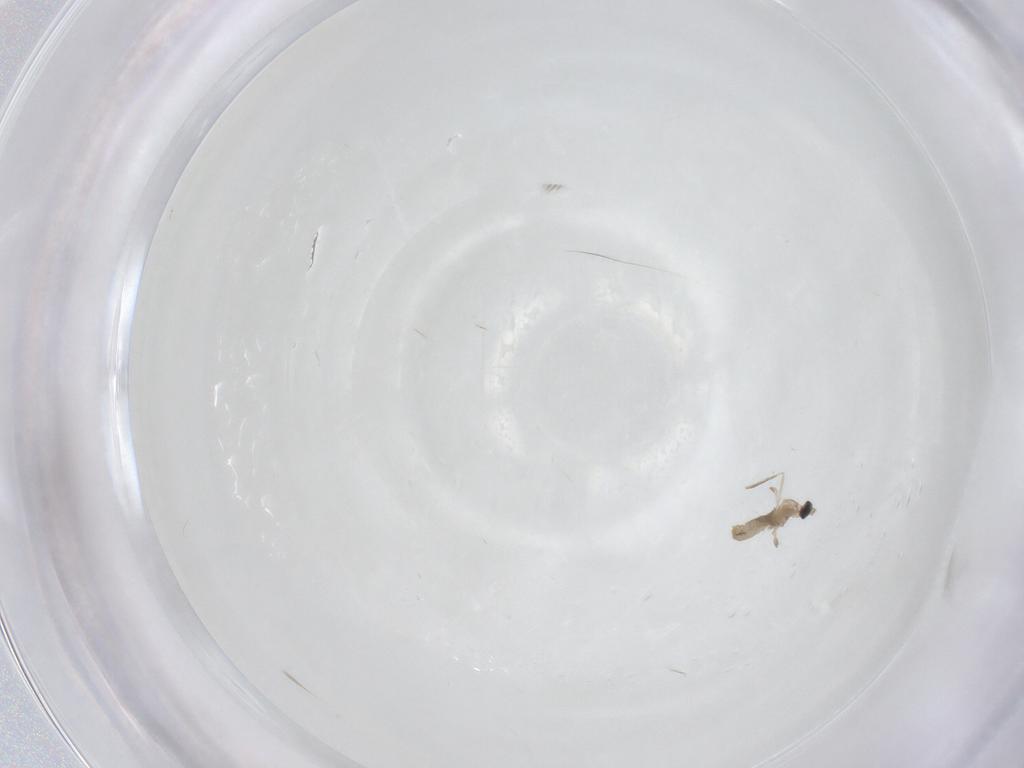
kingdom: Animalia
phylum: Arthropoda
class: Insecta
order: Diptera
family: Cecidomyiidae
